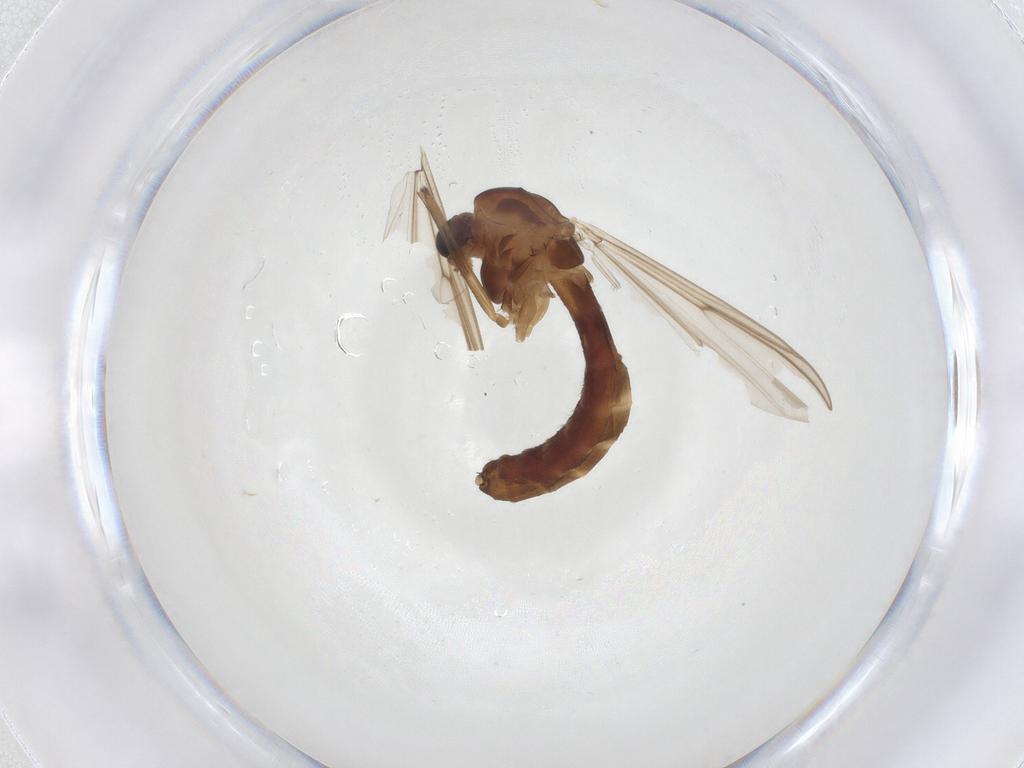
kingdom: Animalia
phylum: Arthropoda
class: Insecta
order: Diptera
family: Chironomidae
